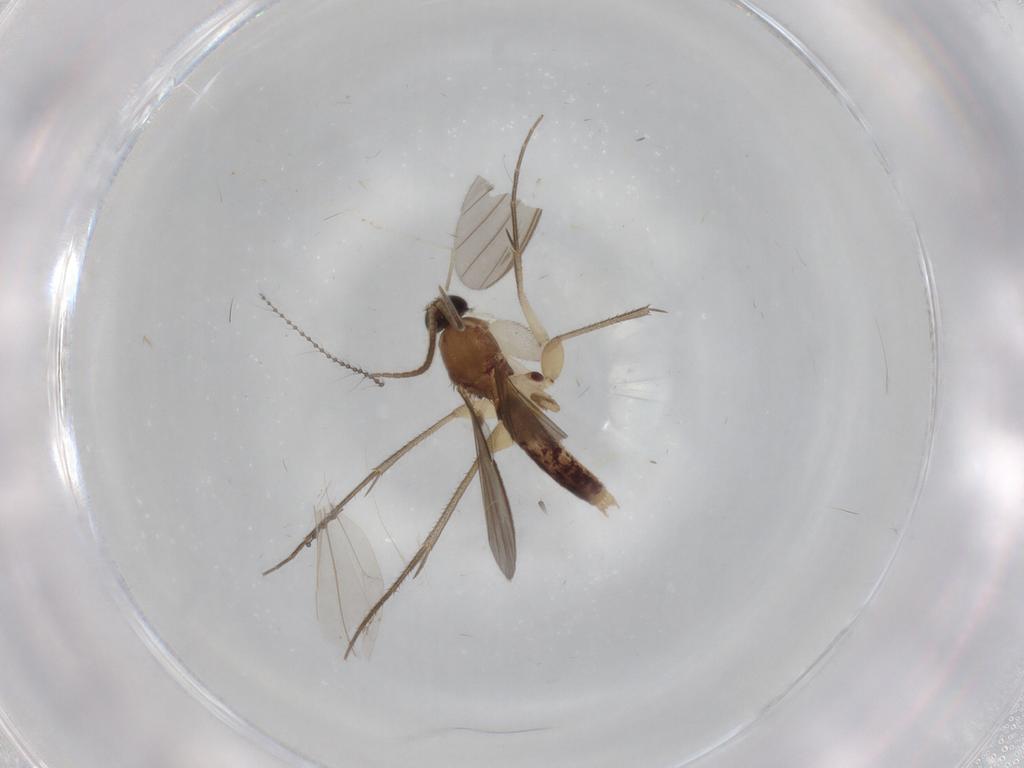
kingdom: Animalia
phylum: Arthropoda
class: Insecta
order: Diptera
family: Mycetophilidae
